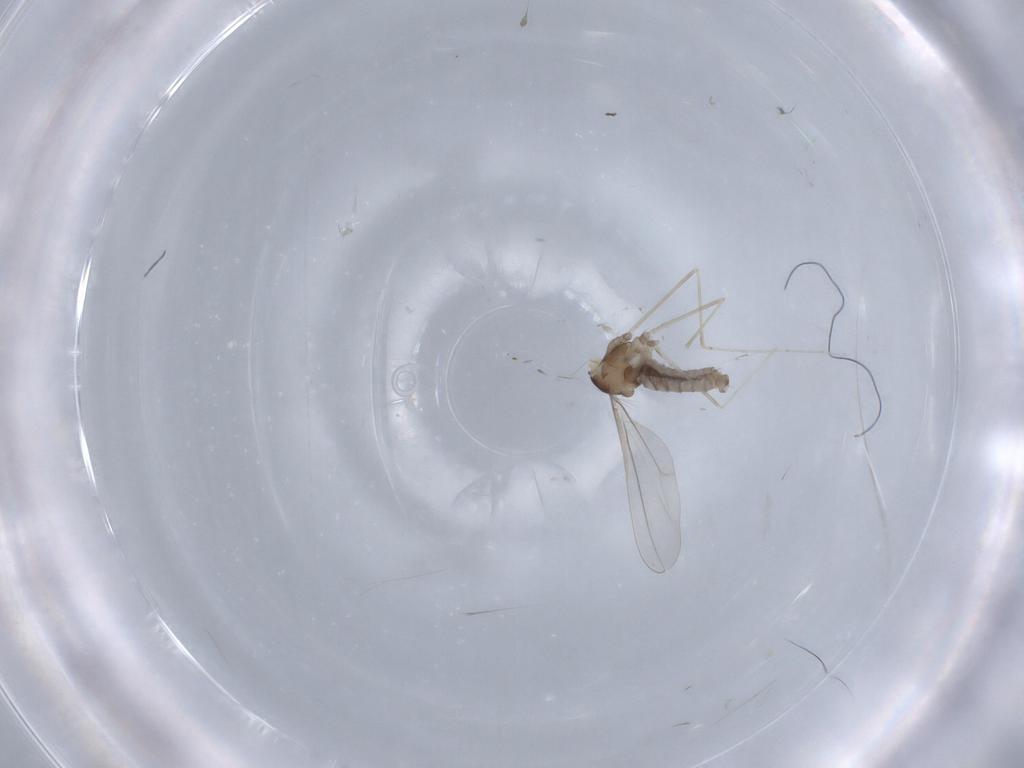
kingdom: Animalia
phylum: Arthropoda
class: Insecta
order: Diptera
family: Cecidomyiidae
